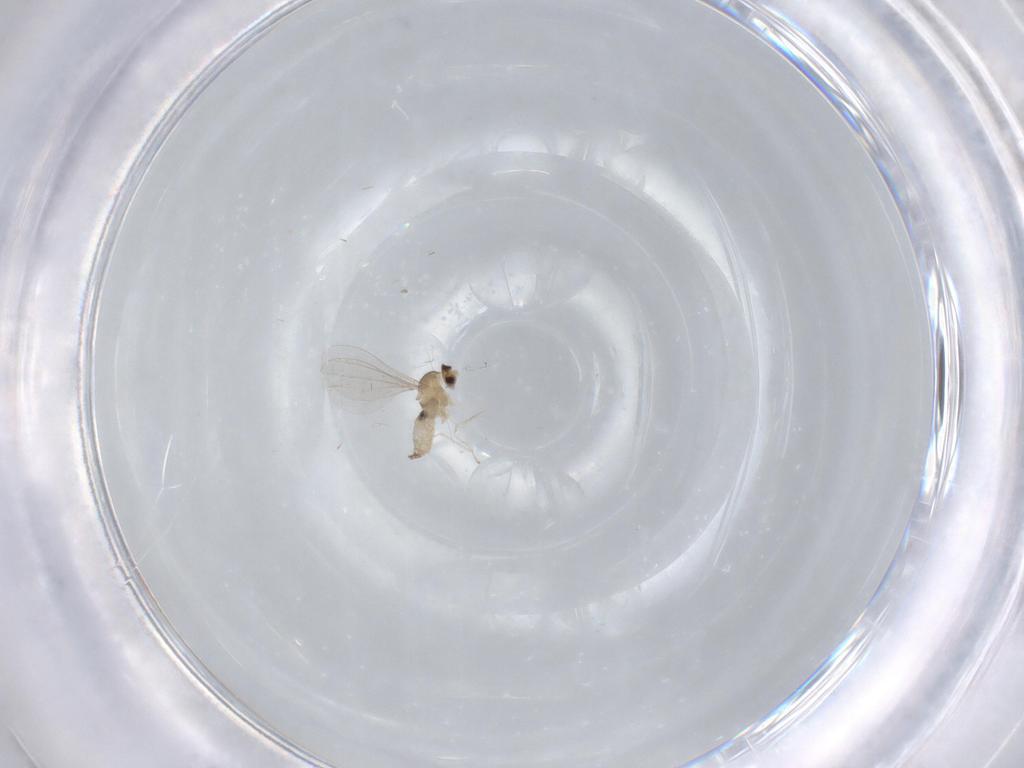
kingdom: Animalia
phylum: Arthropoda
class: Insecta
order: Diptera
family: Cecidomyiidae
